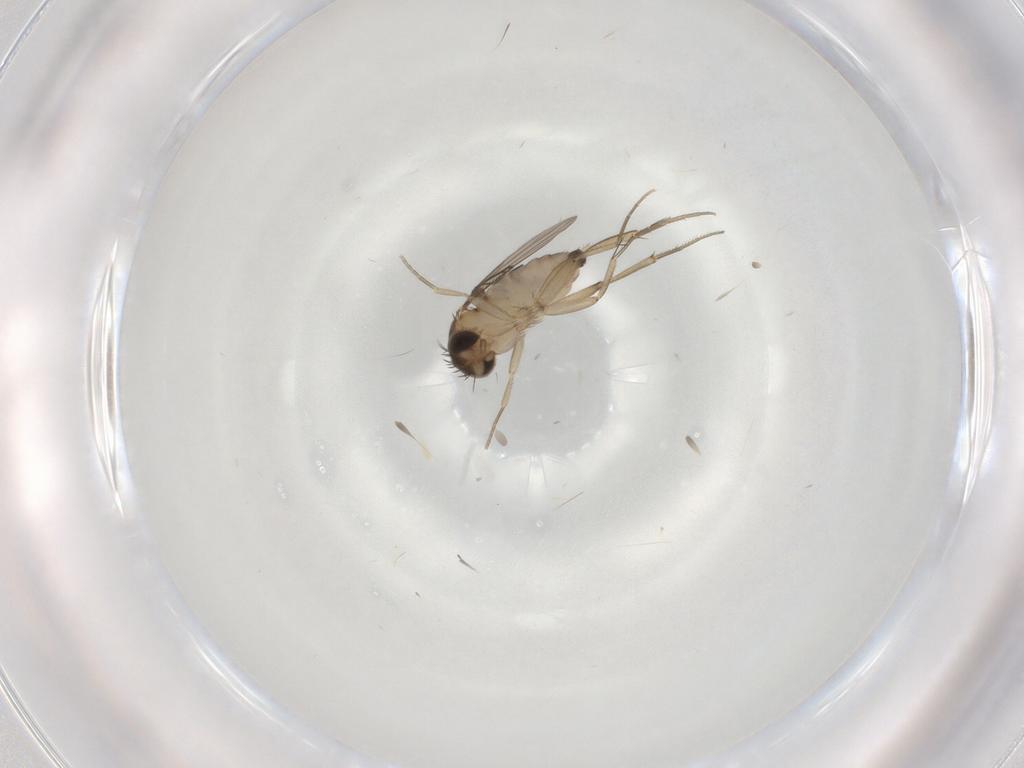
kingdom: Animalia
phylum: Arthropoda
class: Insecta
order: Diptera
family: Phoridae
